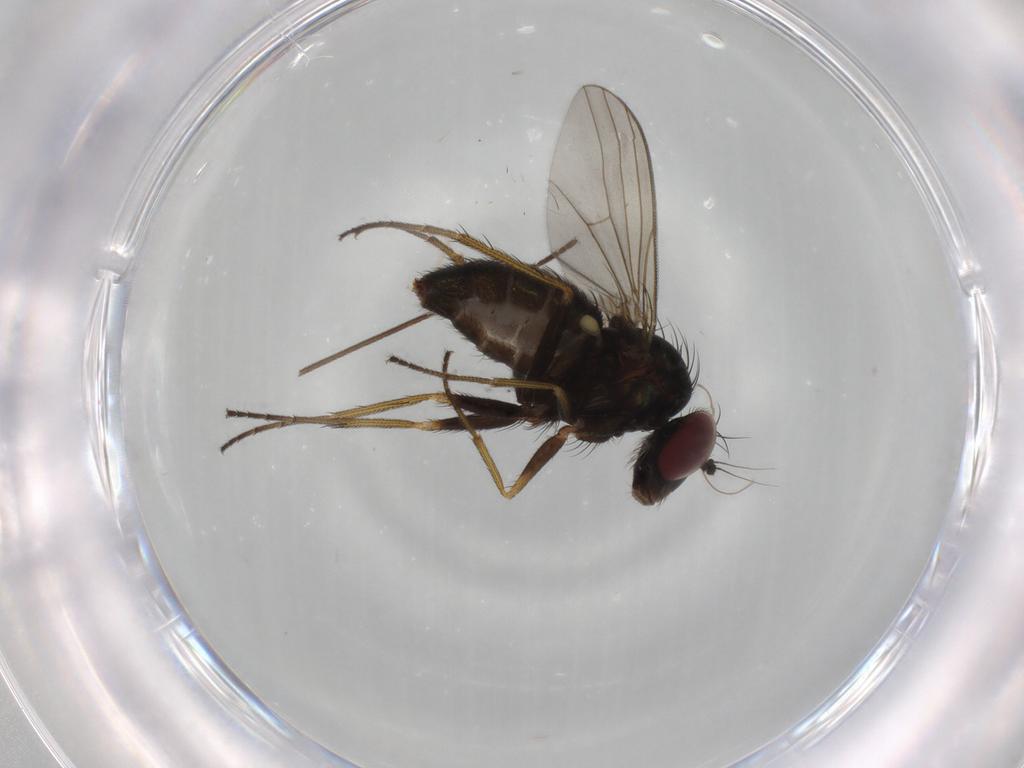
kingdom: Animalia
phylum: Arthropoda
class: Insecta
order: Diptera
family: Dolichopodidae
